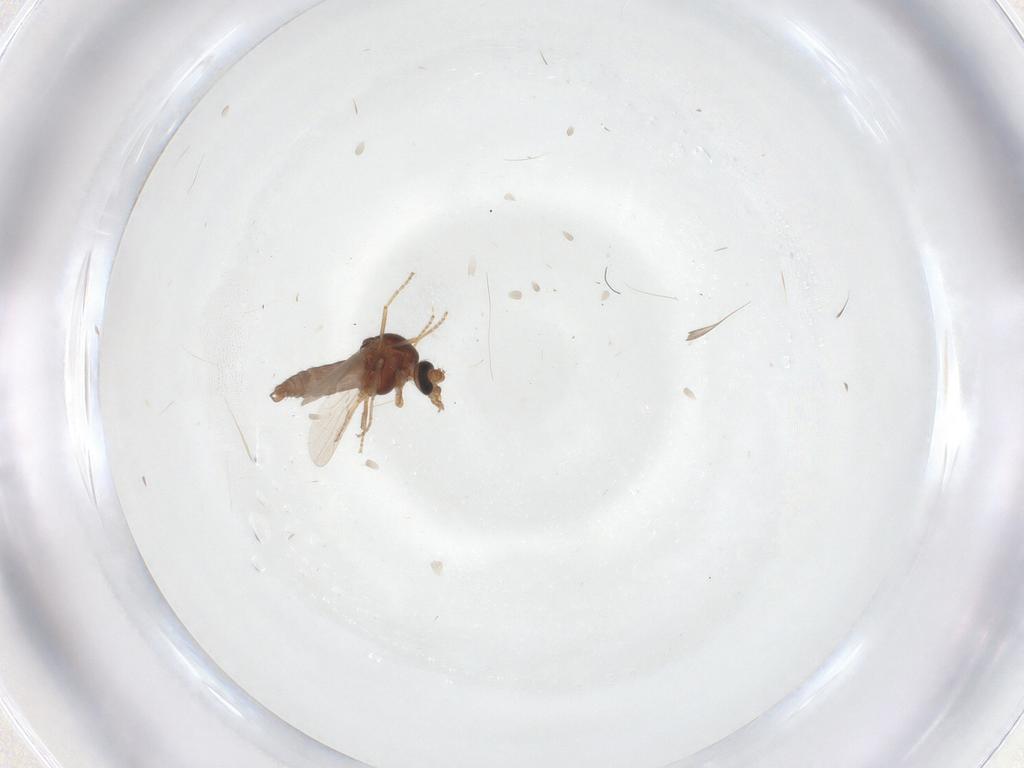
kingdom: Animalia
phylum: Arthropoda
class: Insecta
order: Diptera
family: Ceratopogonidae
